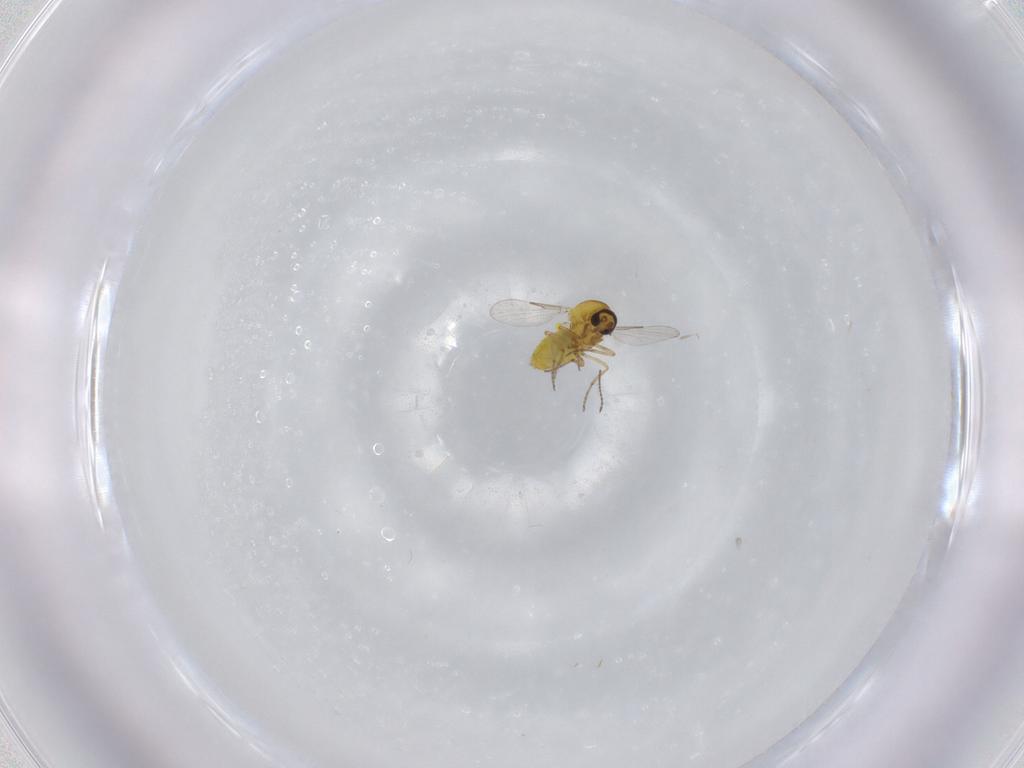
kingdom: Animalia
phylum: Arthropoda
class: Insecta
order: Diptera
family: Ceratopogonidae
